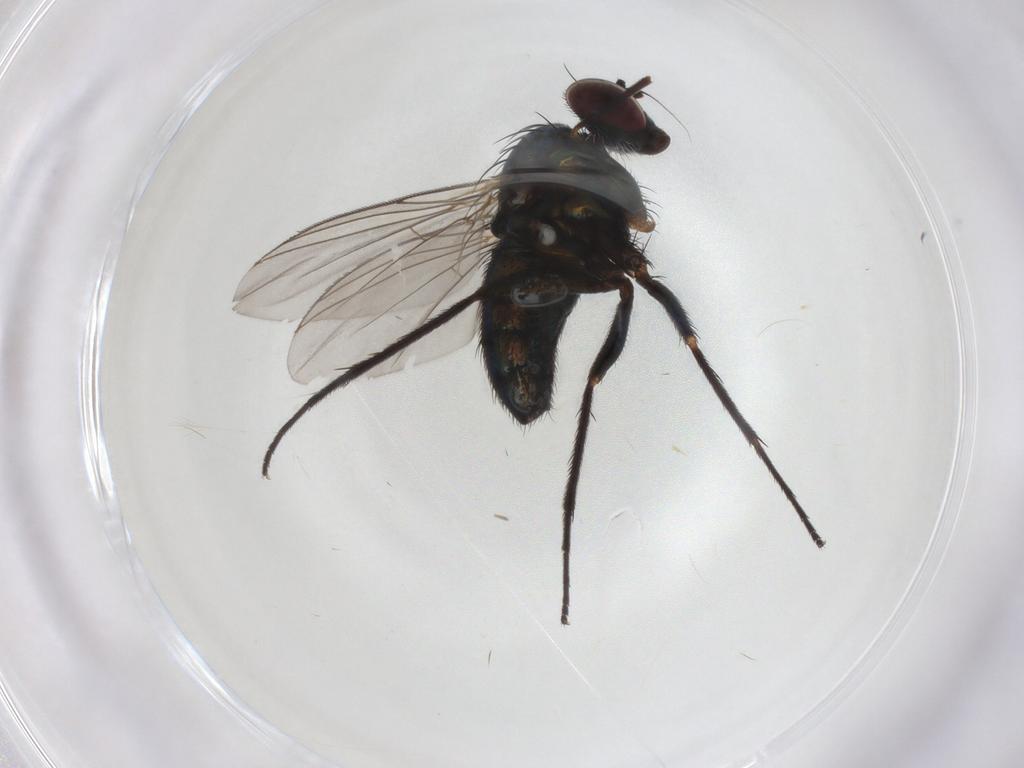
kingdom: Animalia
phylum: Arthropoda
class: Insecta
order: Diptera
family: Dolichopodidae
